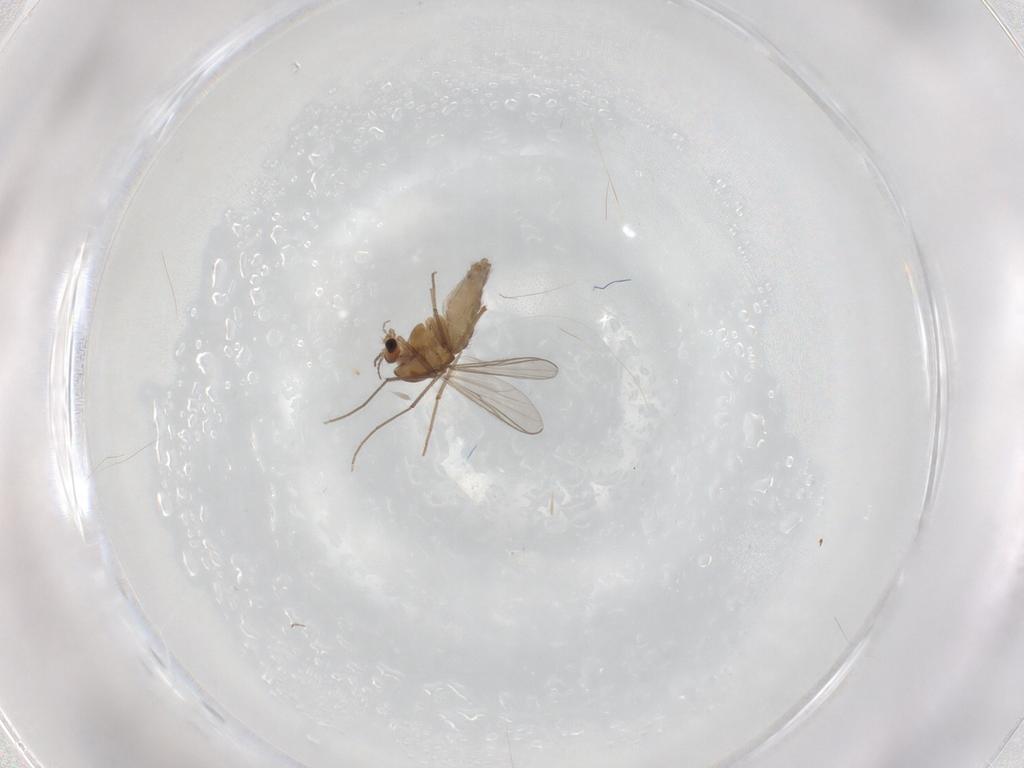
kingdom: Animalia
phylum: Arthropoda
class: Insecta
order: Diptera
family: Chironomidae
